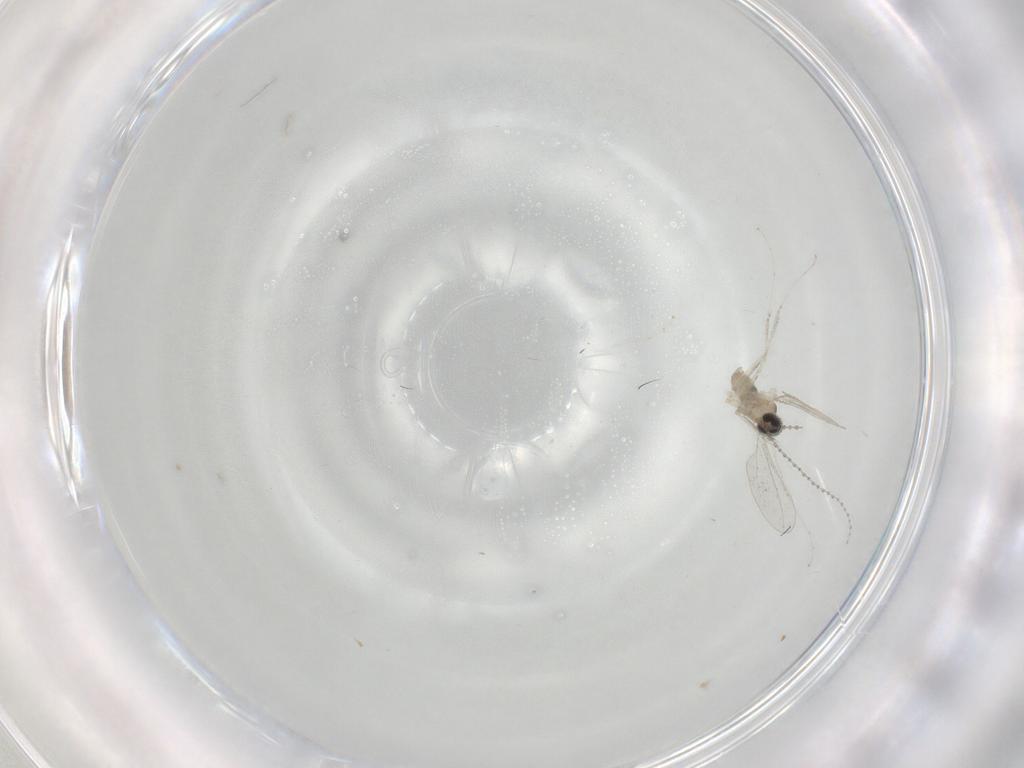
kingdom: Animalia
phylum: Arthropoda
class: Insecta
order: Diptera
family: Cecidomyiidae
